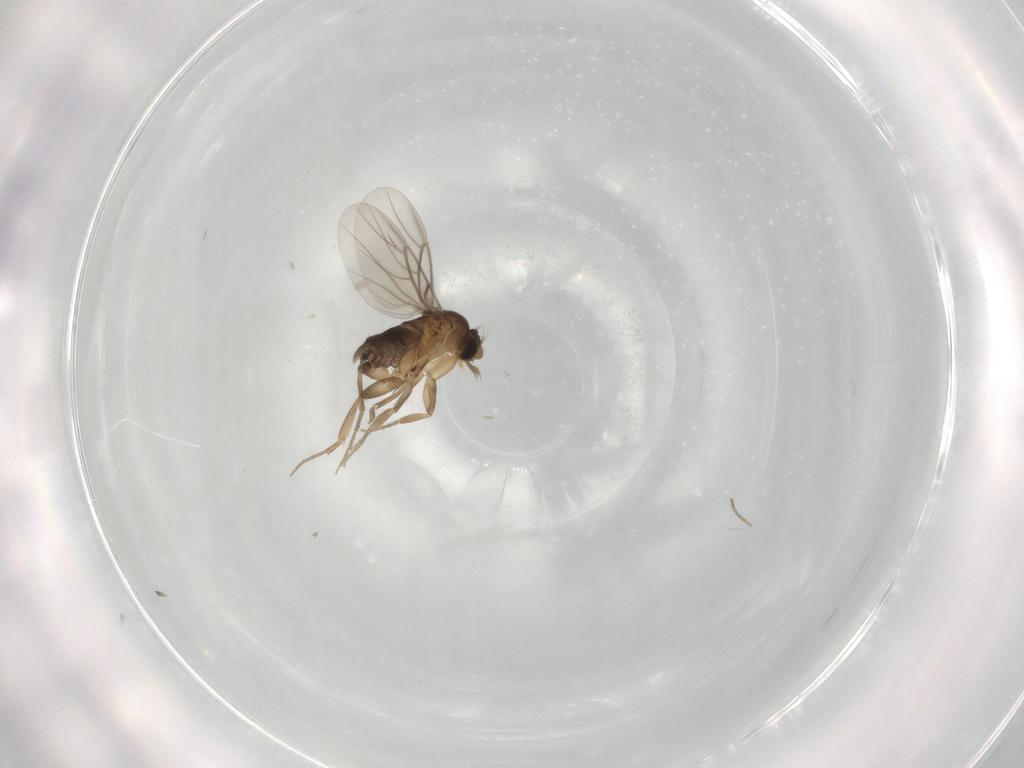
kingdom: Animalia
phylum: Arthropoda
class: Insecta
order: Diptera
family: Phoridae
